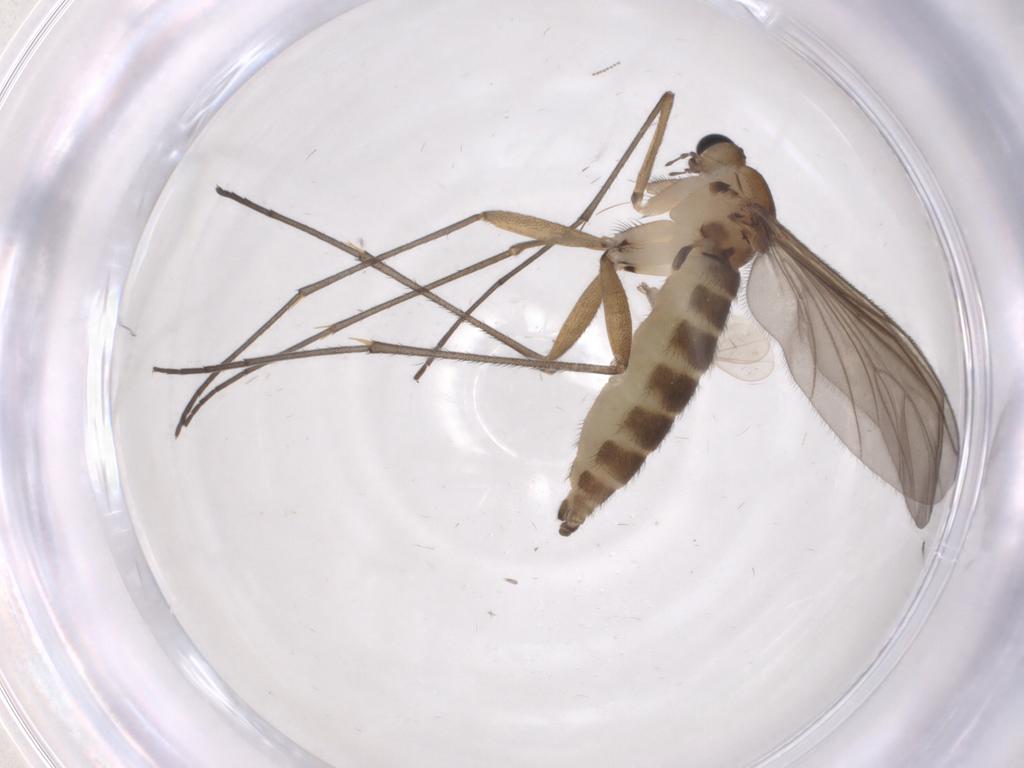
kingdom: Animalia
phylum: Arthropoda
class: Insecta
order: Diptera
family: Sciaridae
